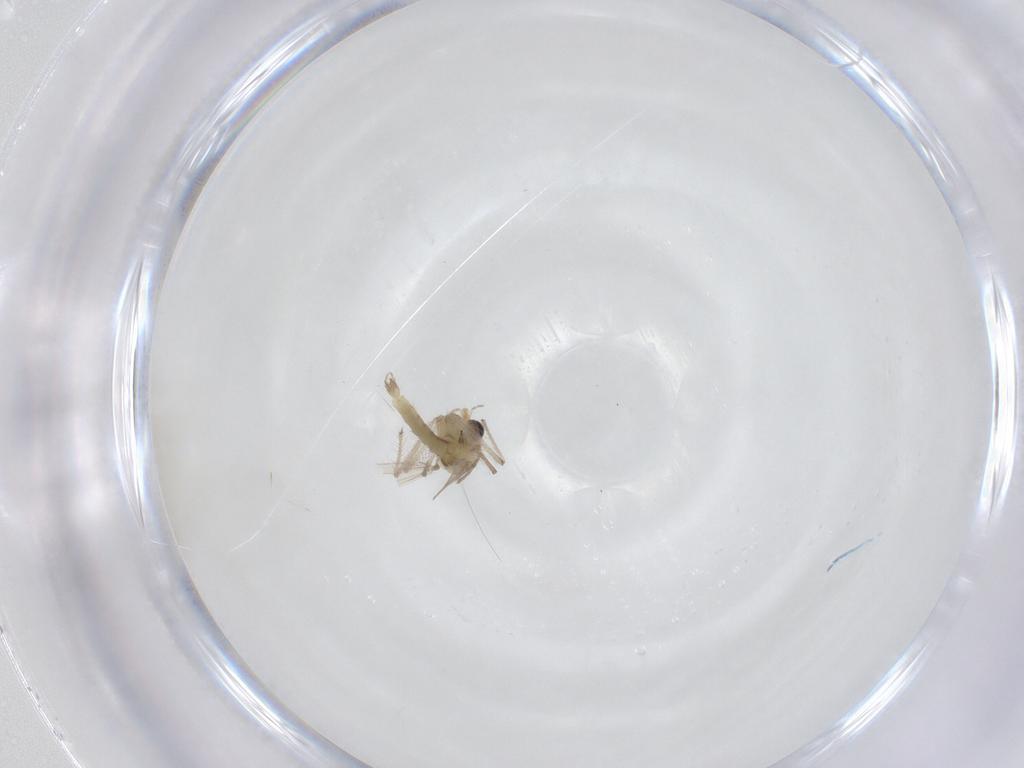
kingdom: Animalia
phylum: Arthropoda
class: Insecta
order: Diptera
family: Chironomidae
